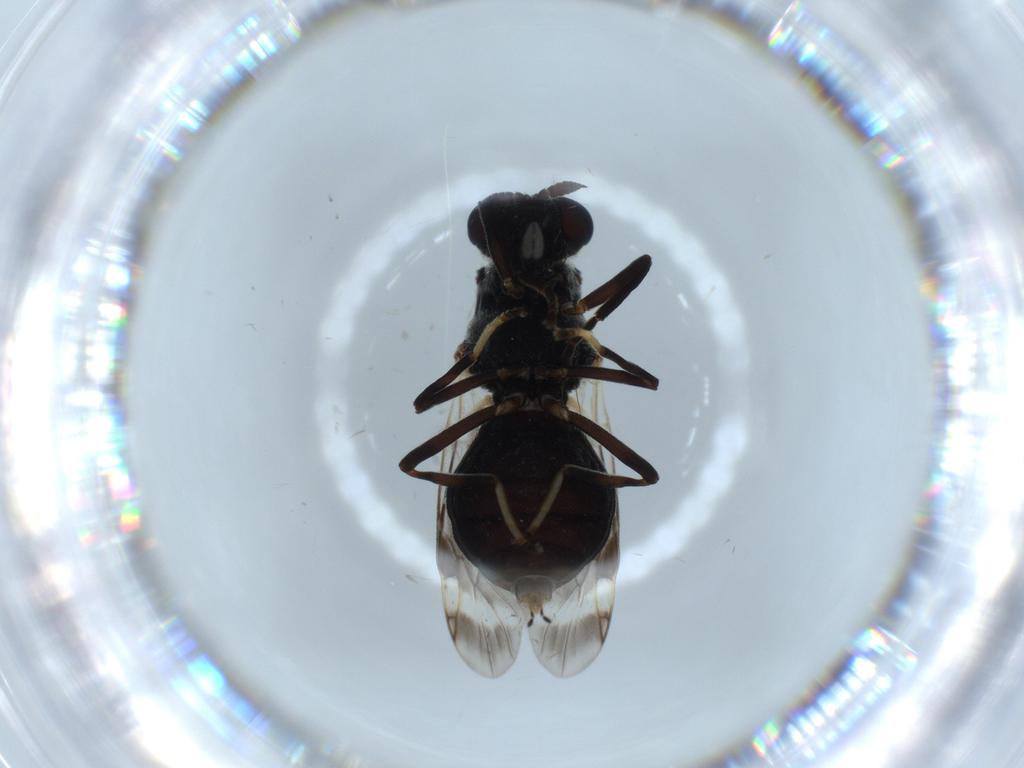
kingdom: Animalia
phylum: Arthropoda
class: Insecta
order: Diptera
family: Stratiomyidae
